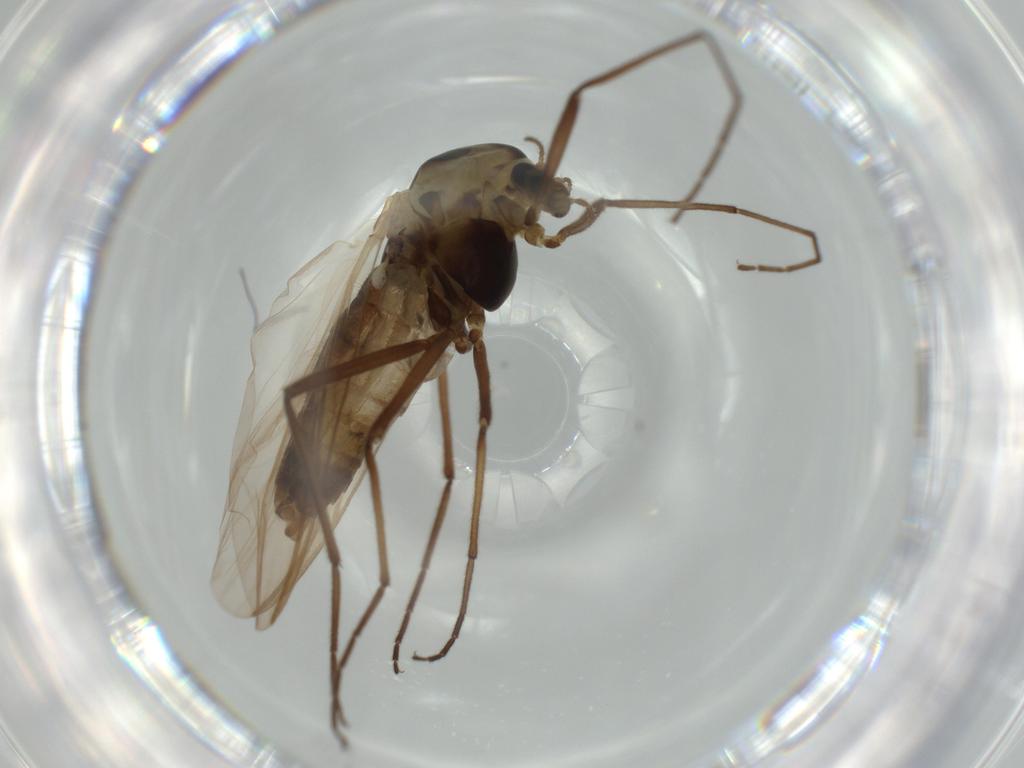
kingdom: Animalia
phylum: Arthropoda
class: Insecta
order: Diptera
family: Dolichopodidae
